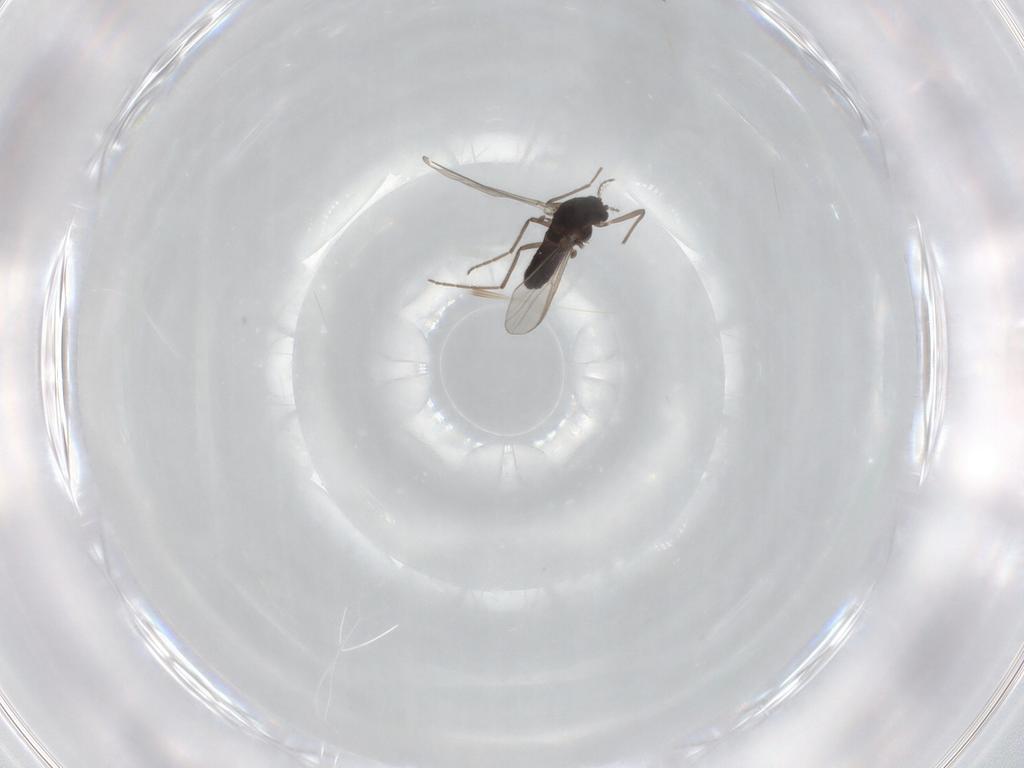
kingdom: Animalia
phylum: Arthropoda
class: Insecta
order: Diptera
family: Chironomidae
